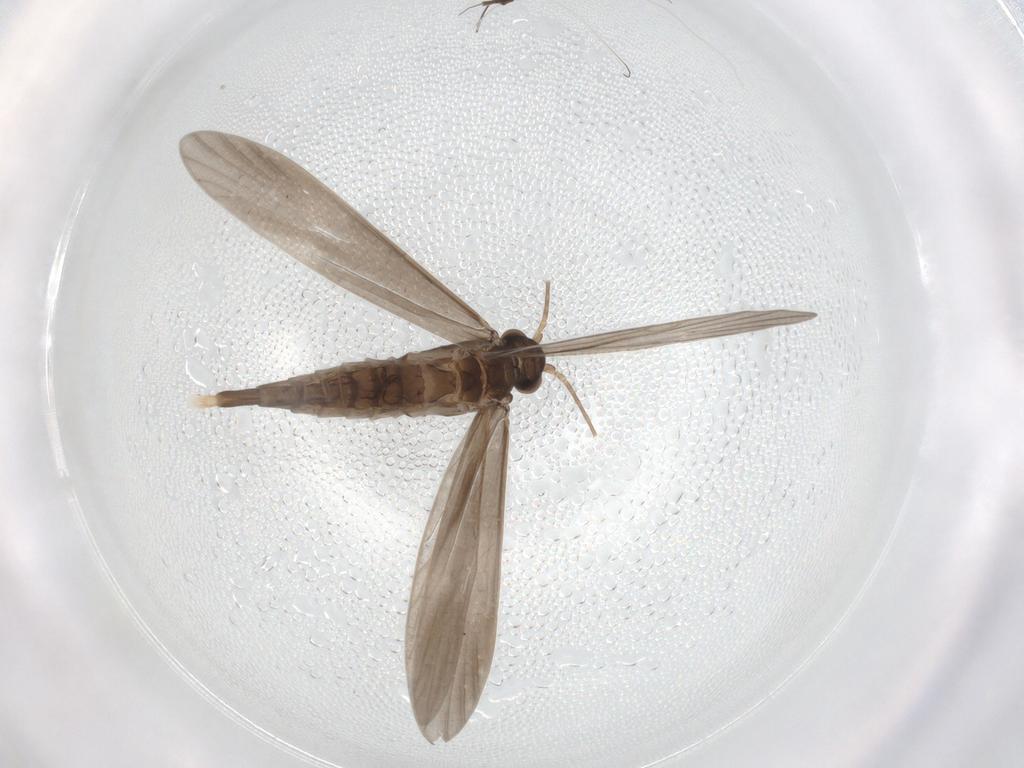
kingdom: Animalia
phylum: Arthropoda
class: Insecta
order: Trichoptera
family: Xiphocentronidae
